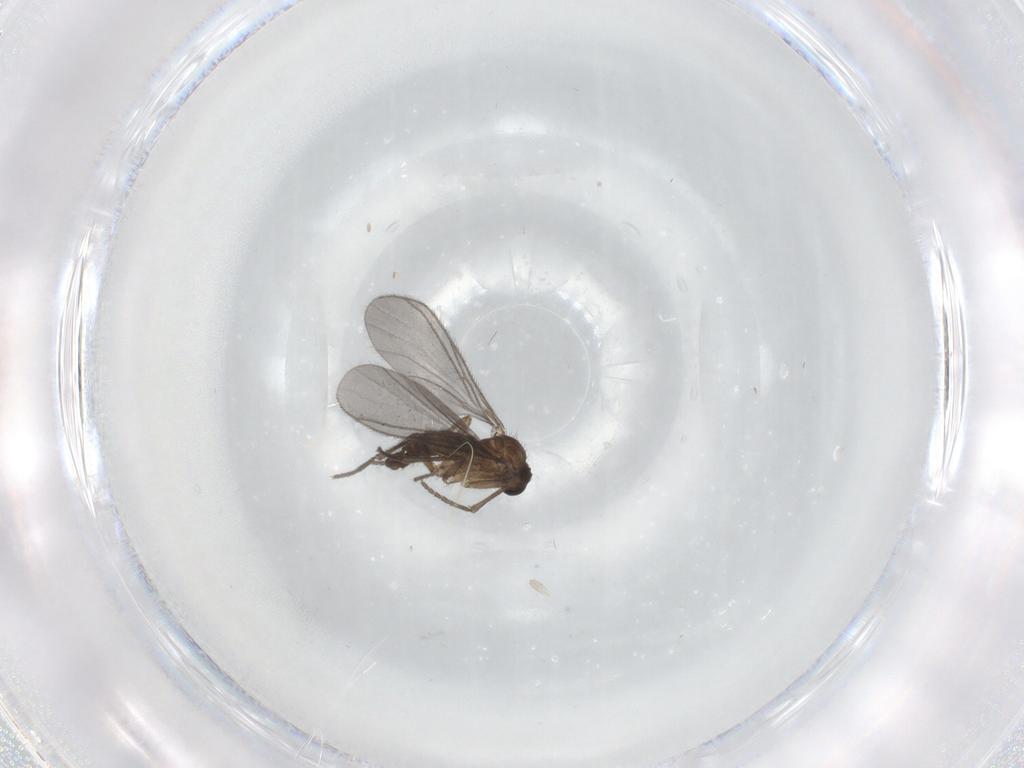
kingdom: Animalia
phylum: Arthropoda
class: Insecta
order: Diptera
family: Sciaridae
